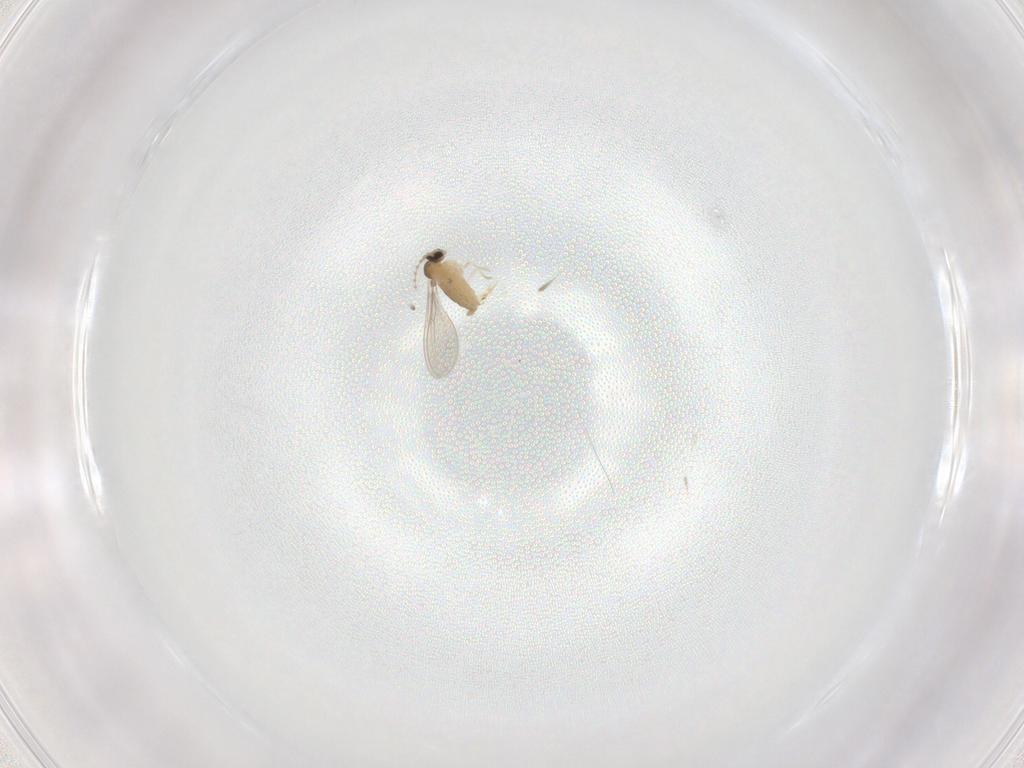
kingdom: Animalia
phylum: Arthropoda
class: Insecta
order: Diptera
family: Cecidomyiidae
